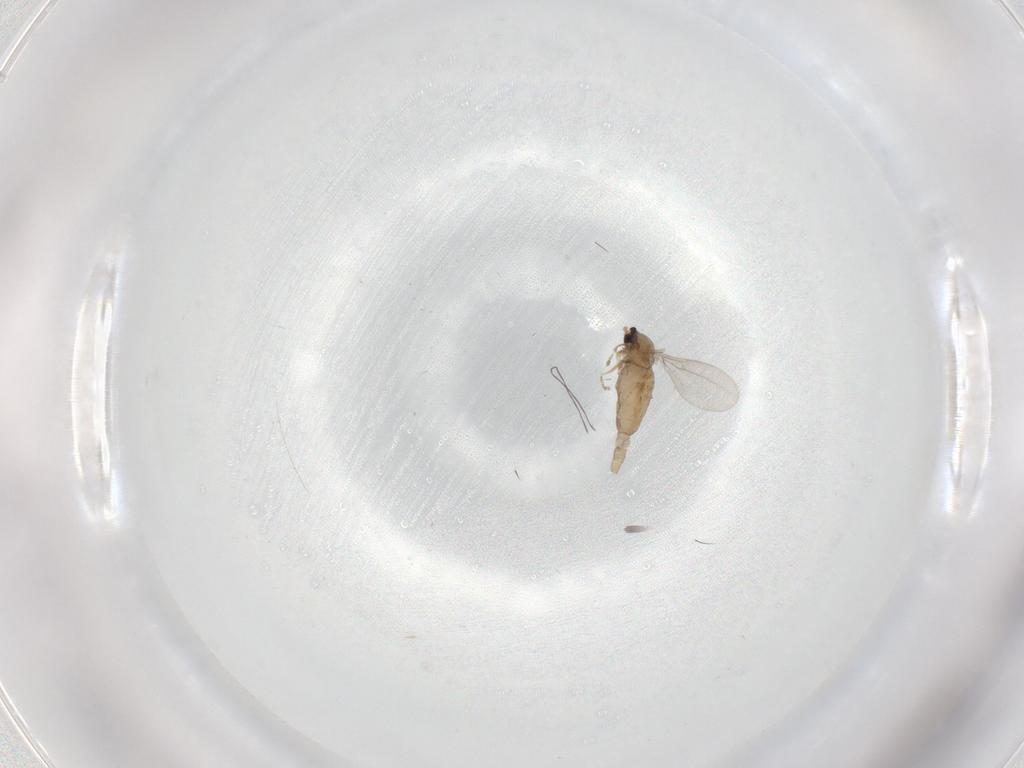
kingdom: Animalia
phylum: Arthropoda
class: Insecta
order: Diptera
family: Cecidomyiidae
